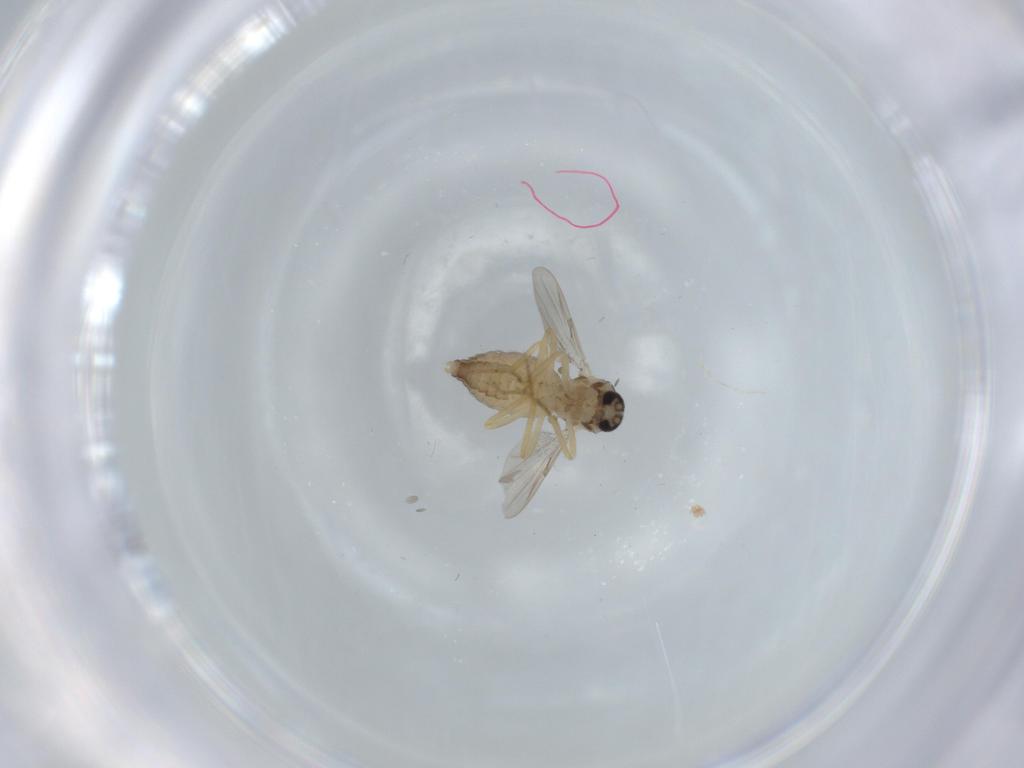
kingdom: Animalia
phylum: Arthropoda
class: Insecta
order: Diptera
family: Ceratopogonidae
